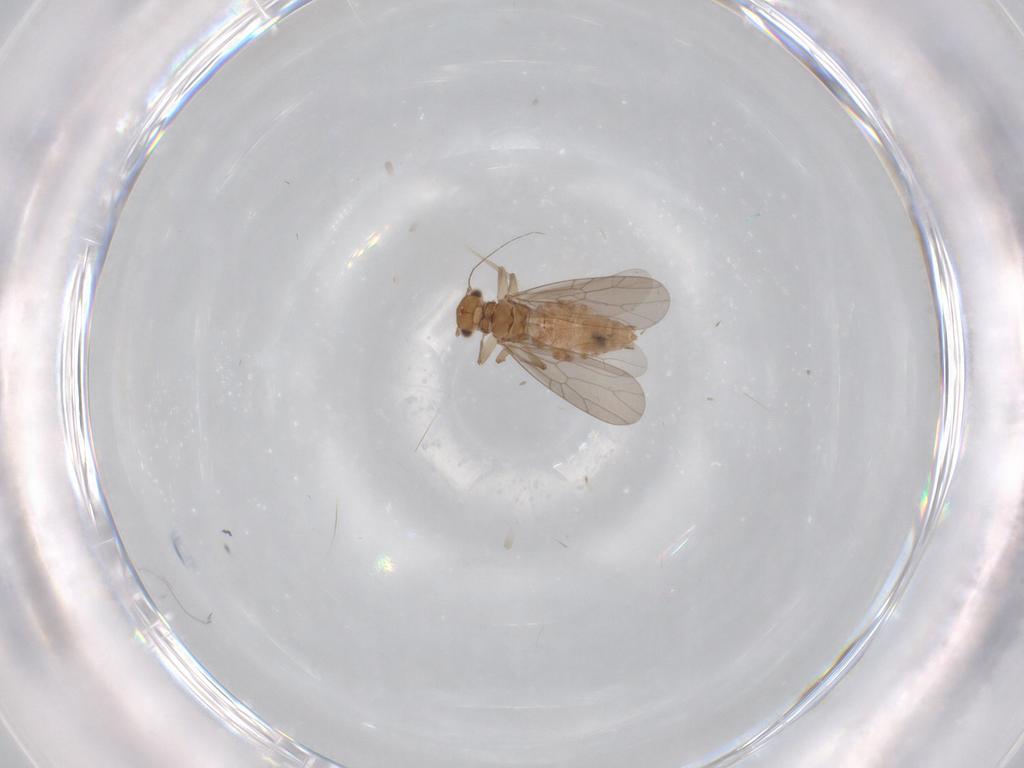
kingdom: Animalia
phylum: Arthropoda
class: Insecta
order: Psocodea
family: Lepidopsocidae
